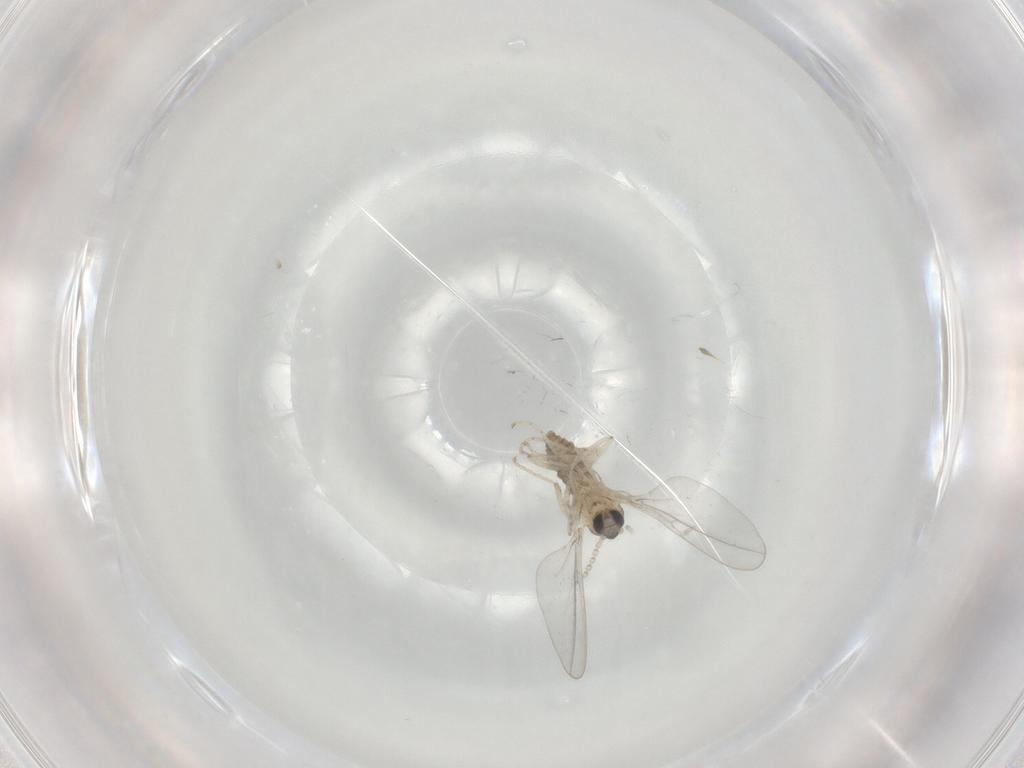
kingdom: Animalia
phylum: Arthropoda
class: Insecta
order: Diptera
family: Cecidomyiidae
